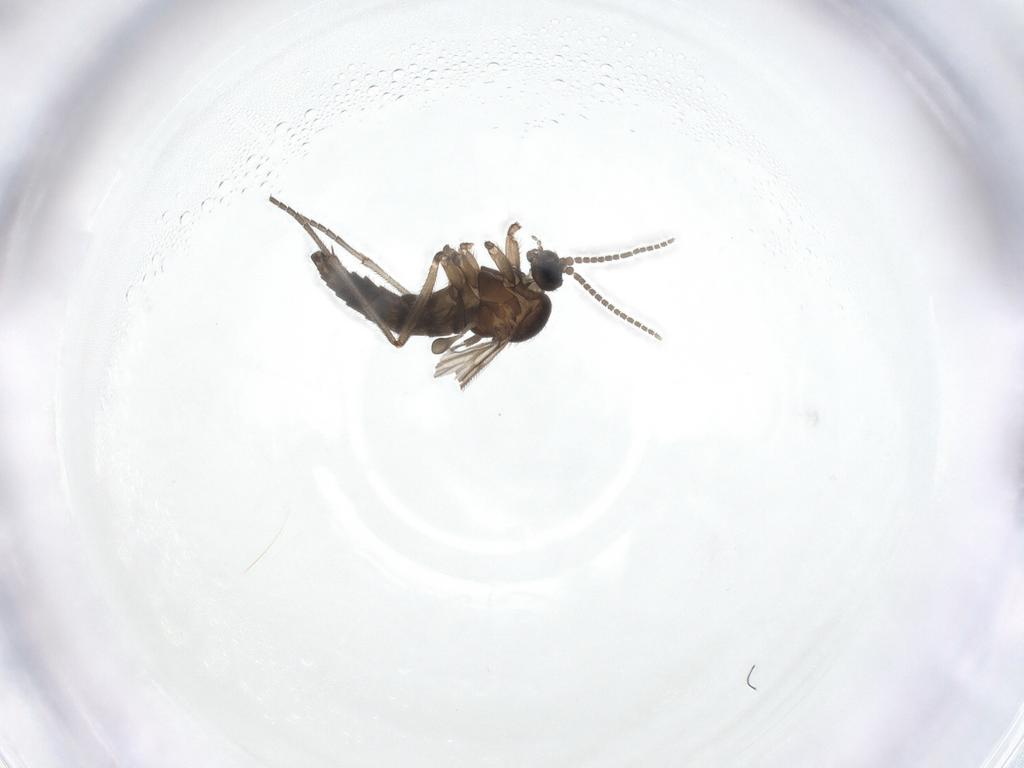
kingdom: Animalia
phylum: Arthropoda
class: Insecta
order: Diptera
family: Sciaridae
